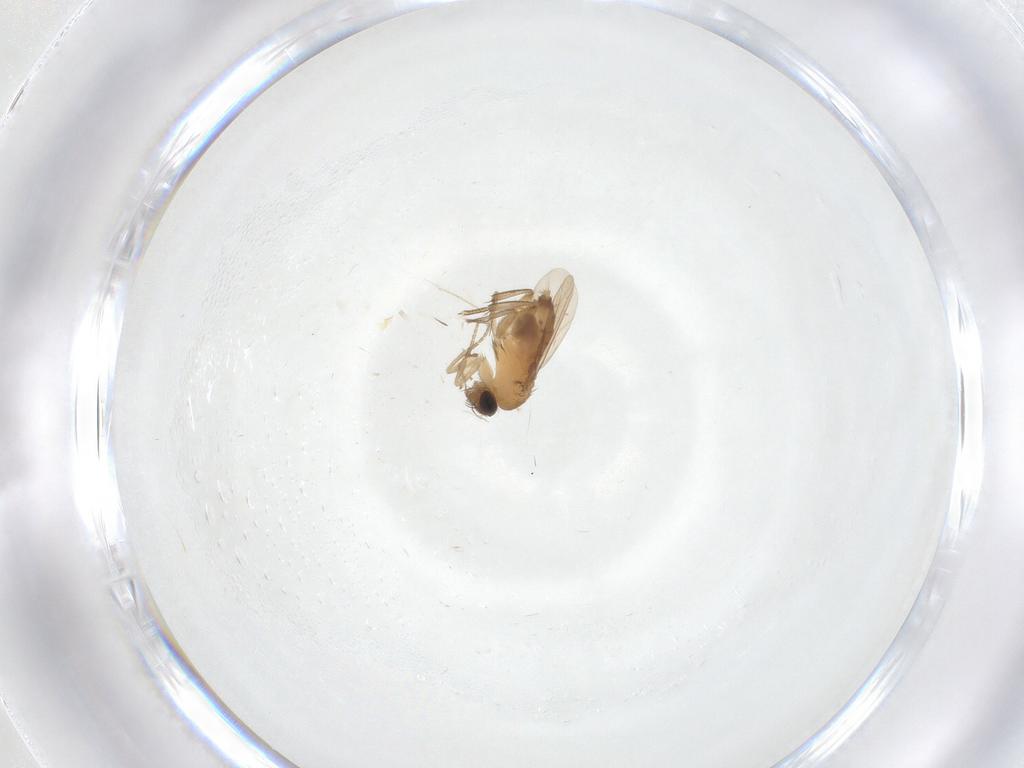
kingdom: Animalia
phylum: Arthropoda
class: Insecta
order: Diptera
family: Phoridae
